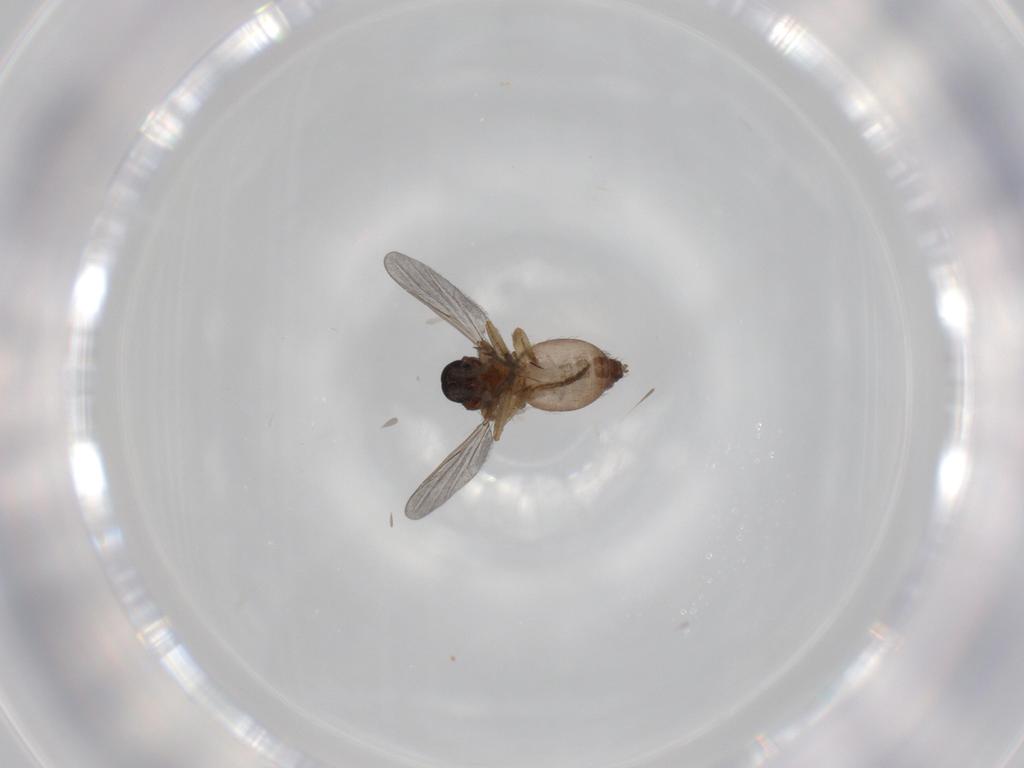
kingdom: Animalia
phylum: Arthropoda
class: Insecta
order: Diptera
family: Ceratopogonidae
